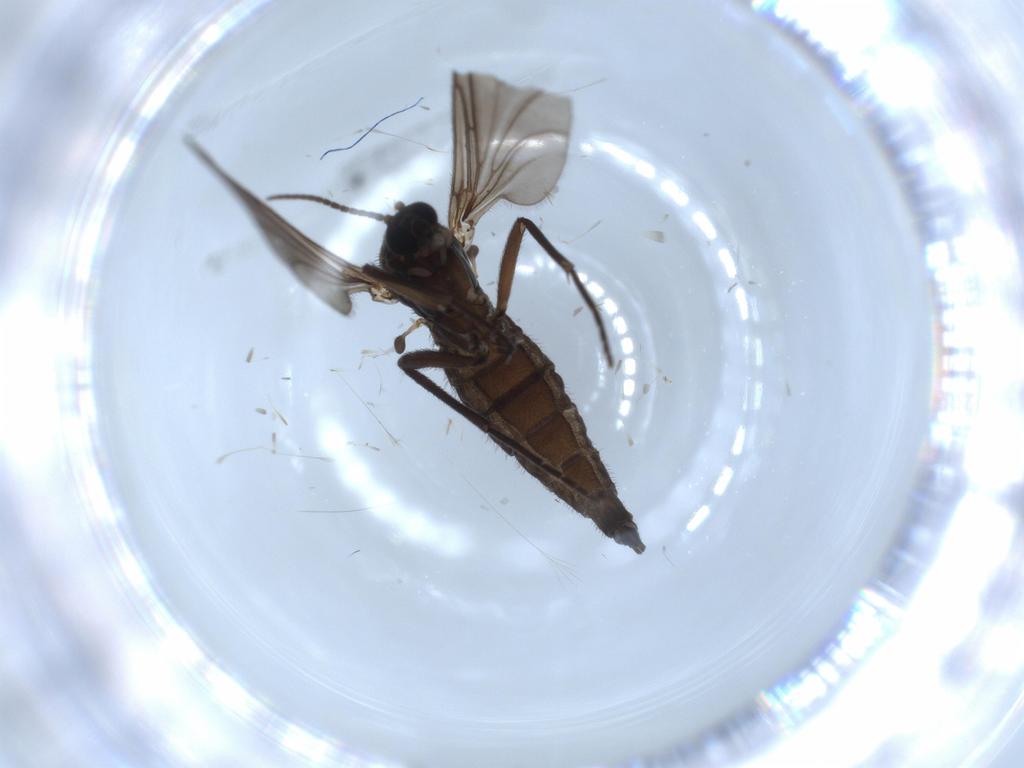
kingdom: Animalia
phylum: Arthropoda
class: Insecta
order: Diptera
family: Sciaridae
